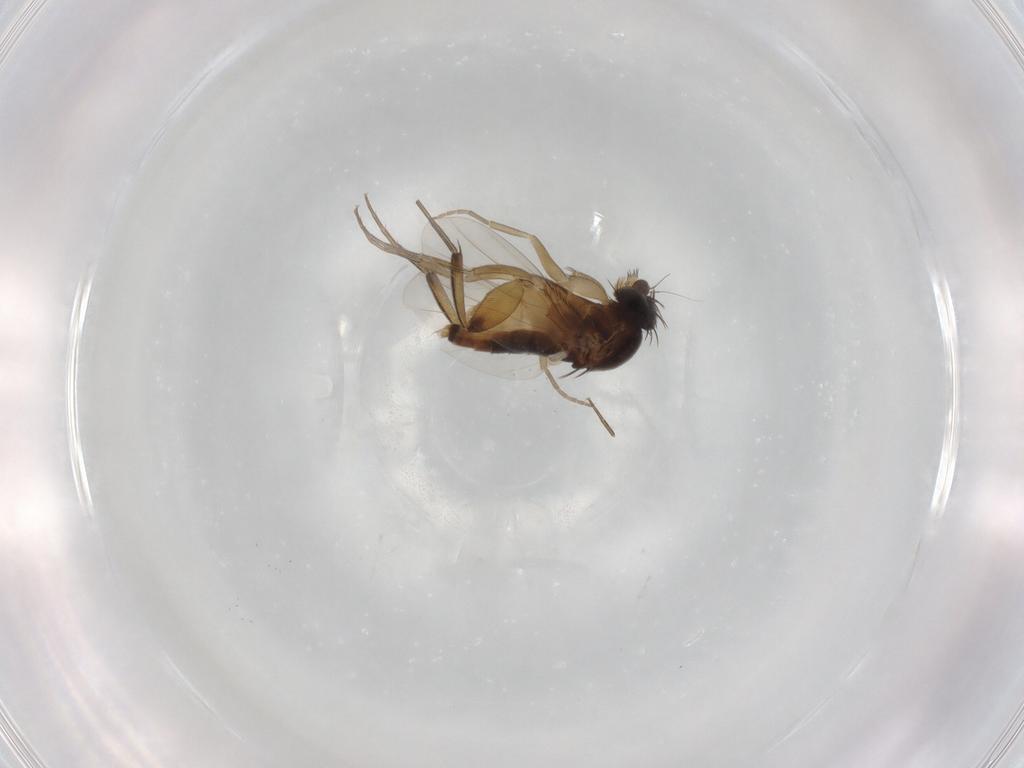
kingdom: Animalia
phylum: Arthropoda
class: Insecta
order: Diptera
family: Phoridae
